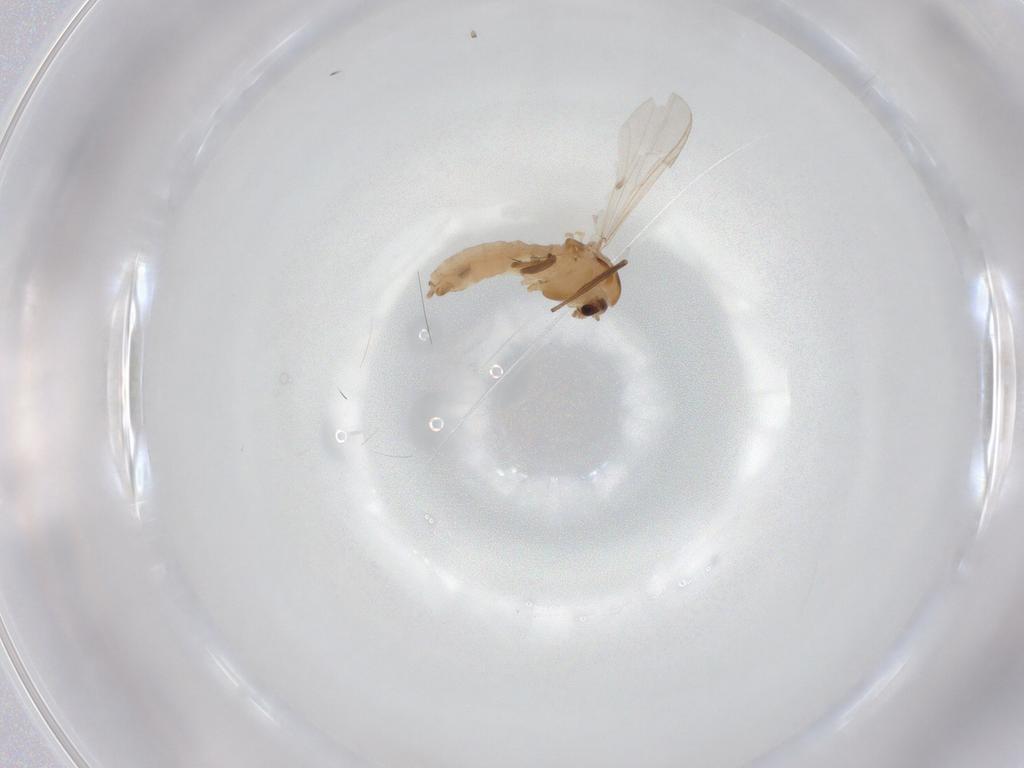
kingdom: Animalia
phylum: Arthropoda
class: Insecta
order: Diptera
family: Chironomidae
